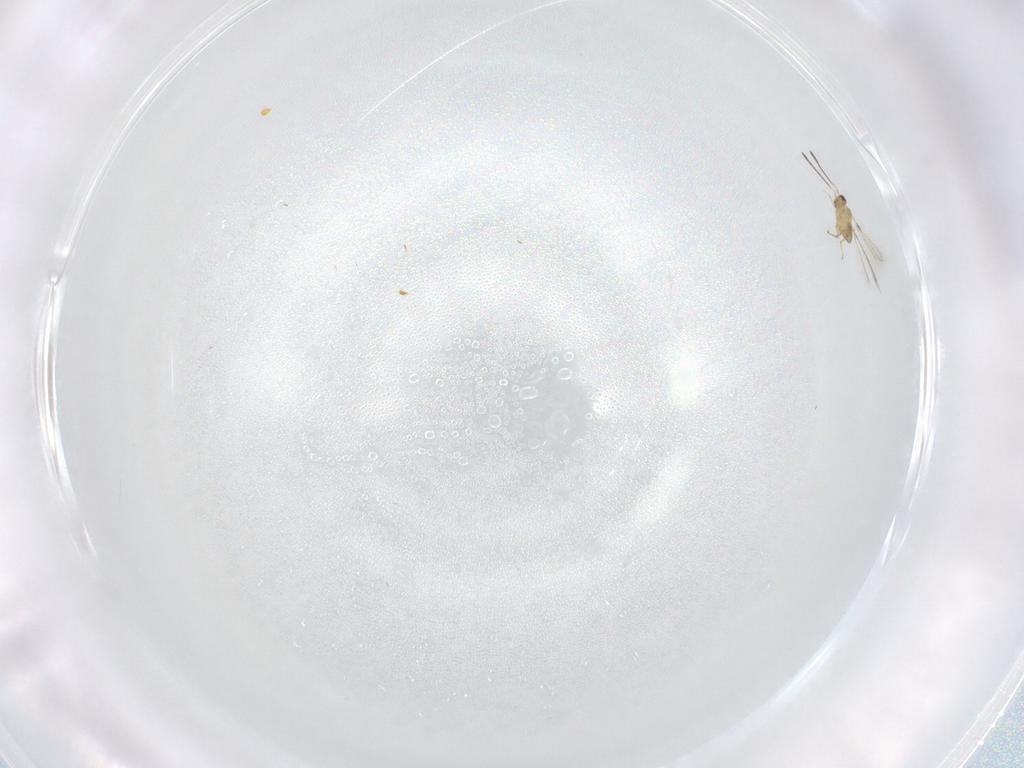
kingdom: Animalia
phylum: Arthropoda
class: Insecta
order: Hymenoptera
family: Mymaridae
